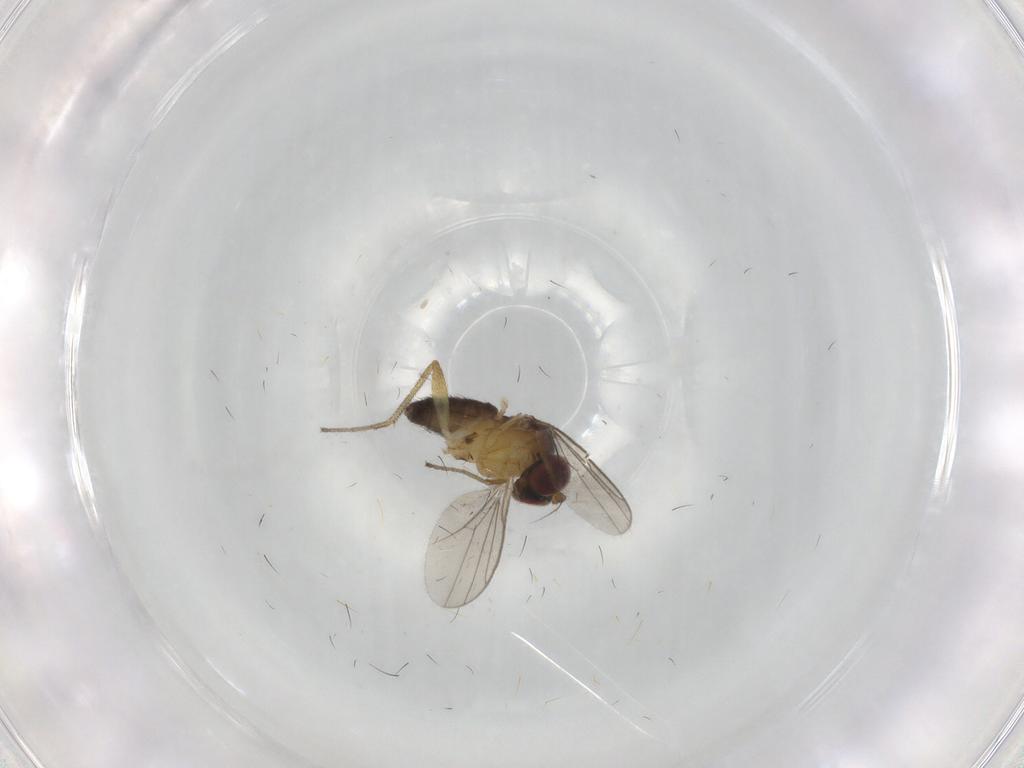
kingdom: Animalia
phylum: Arthropoda
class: Insecta
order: Diptera
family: Dolichopodidae
